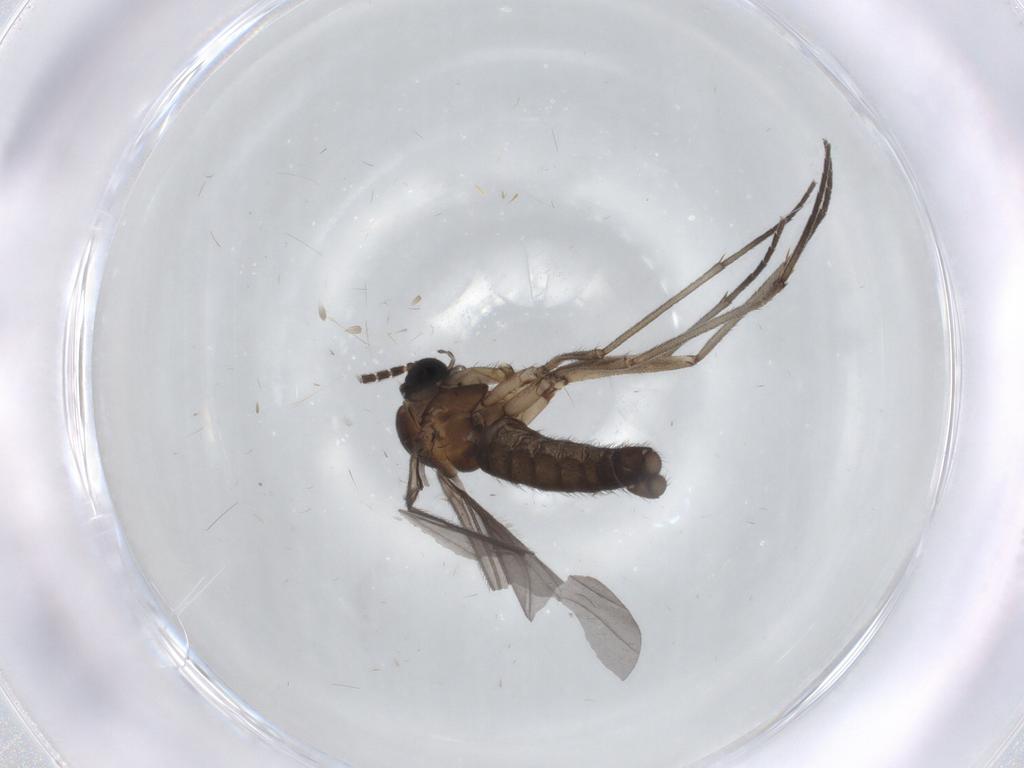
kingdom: Animalia
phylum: Arthropoda
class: Insecta
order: Diptera
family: Sciaridae
